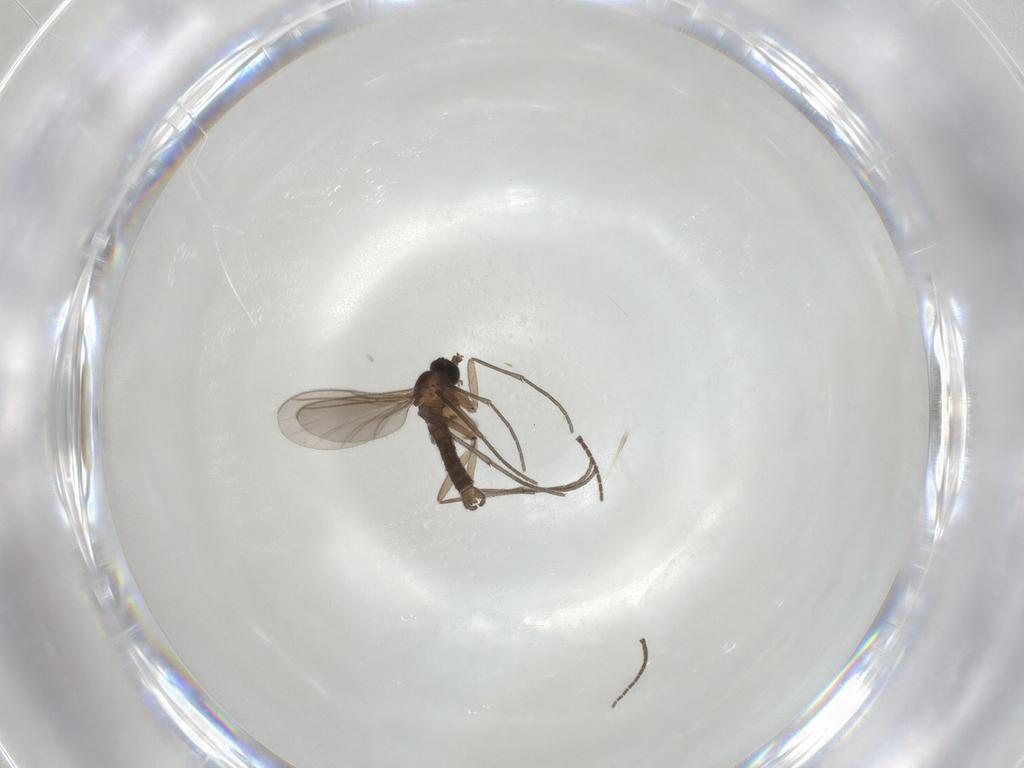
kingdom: Animalia
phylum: Arthropoda
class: Insecta
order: Diptera
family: Sciaridae
